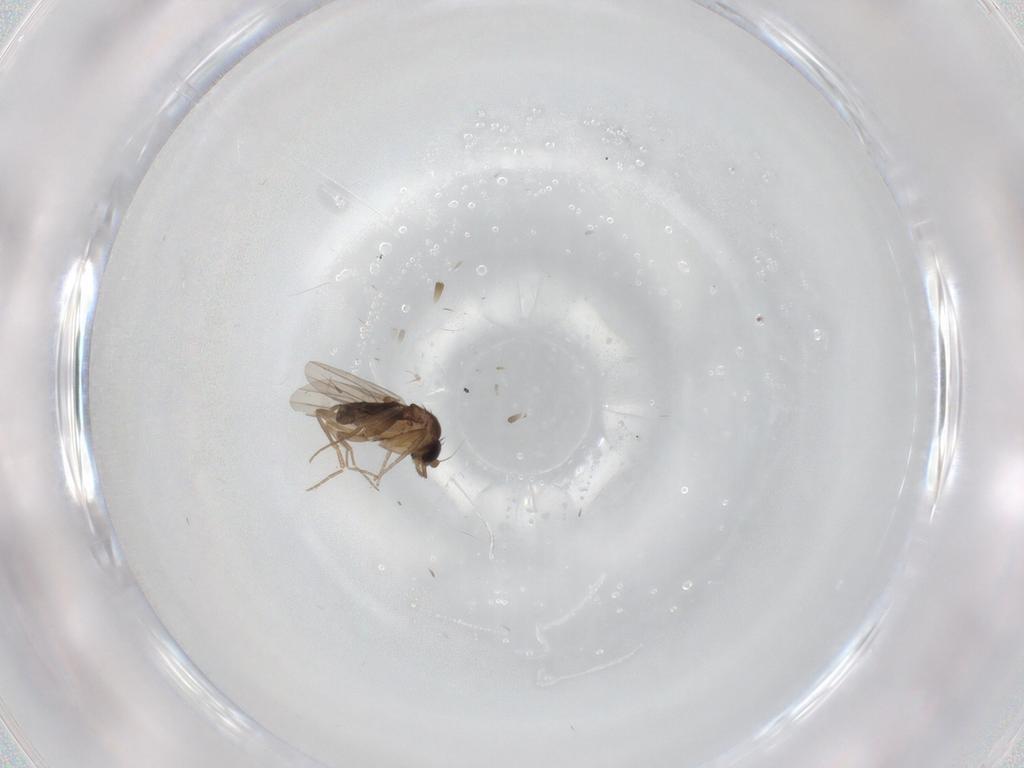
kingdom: Animalia
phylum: Arthropoda
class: Insecta
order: Diptera
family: Phoridae
